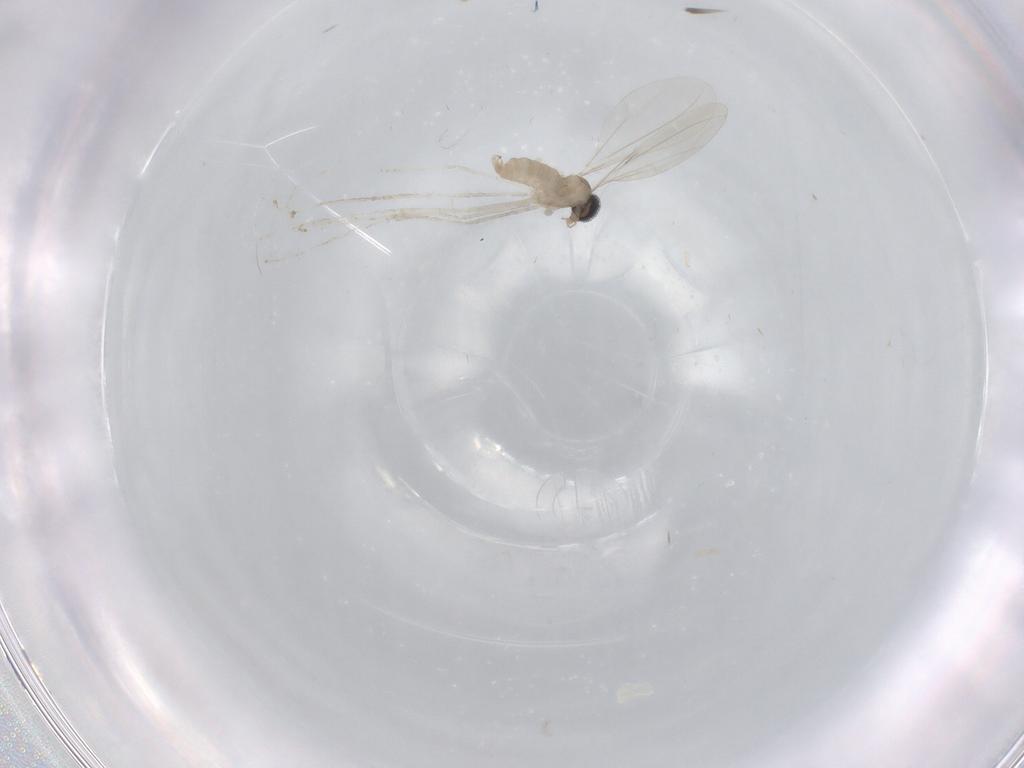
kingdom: Animalia
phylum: Arthropoda
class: Insecta
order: Diptera
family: Cecidomyiidae
